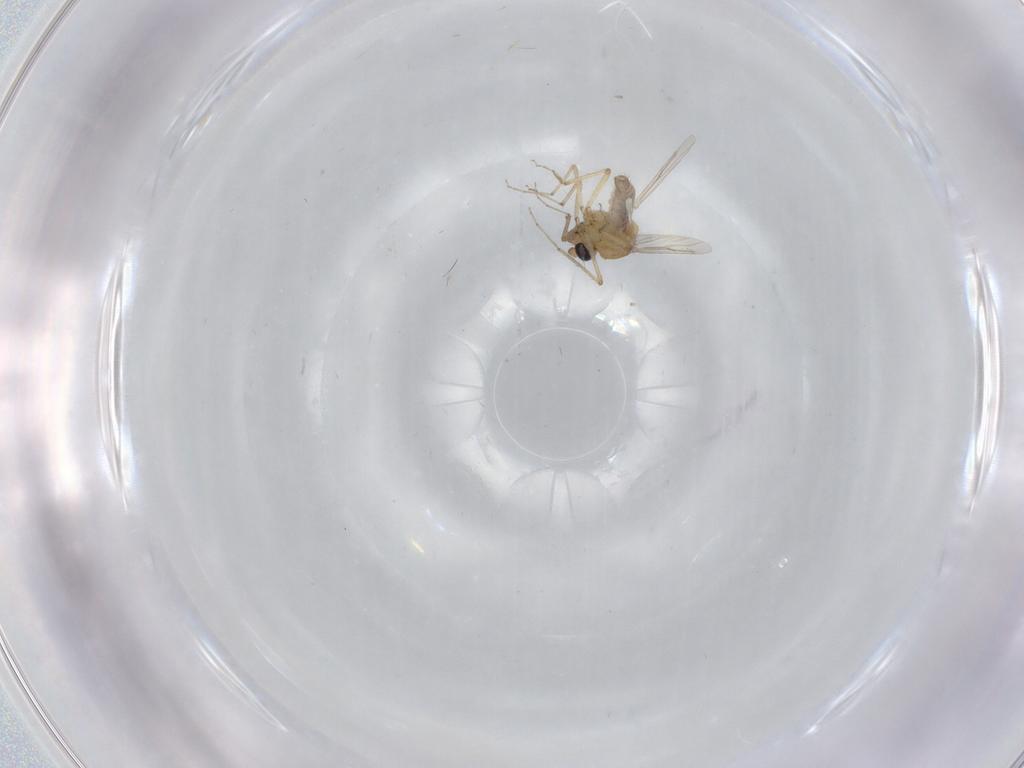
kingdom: Animalia
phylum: Arthropoda
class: Insecta
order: Diptera
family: Ceratopogonidae
